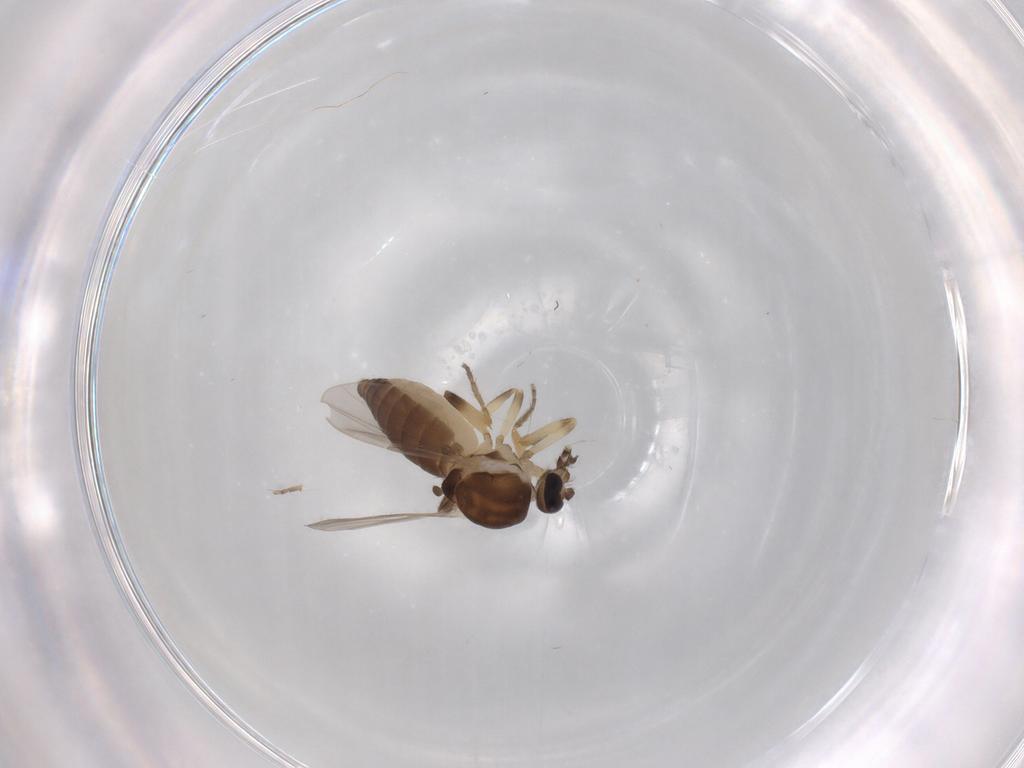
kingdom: Animalia
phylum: Arthropoda
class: Insecta
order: Diptera
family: Ceratopogonidae
